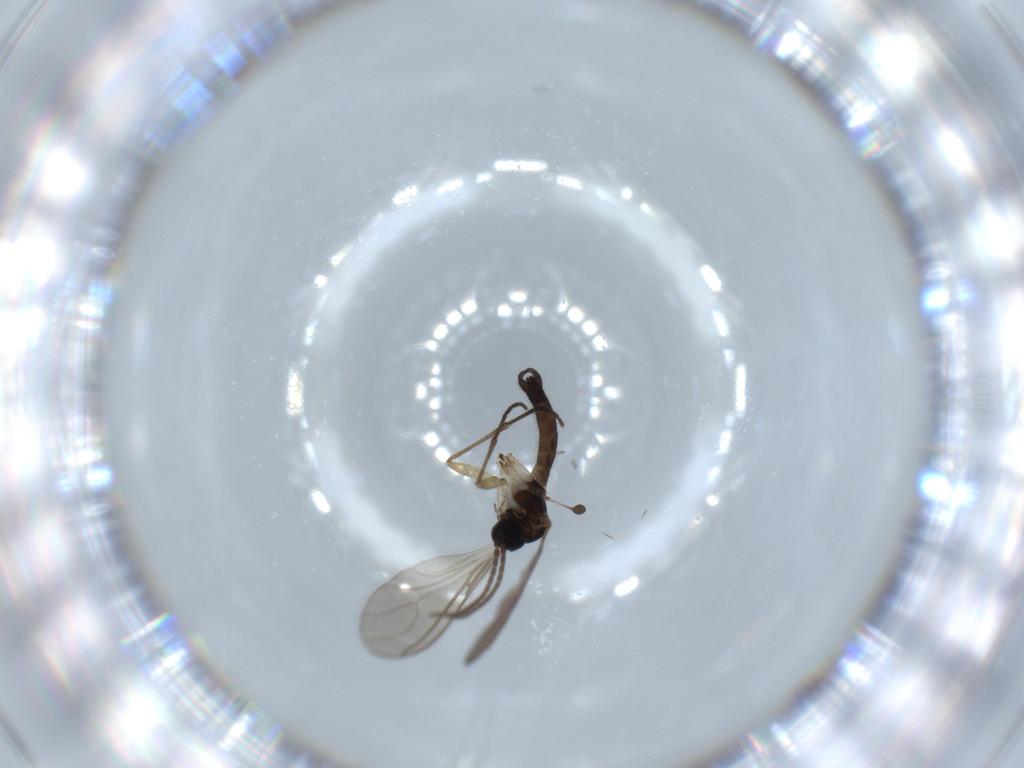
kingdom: Animalia
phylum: Arthropoda
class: Insecta
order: Diptera
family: Sciaridae
